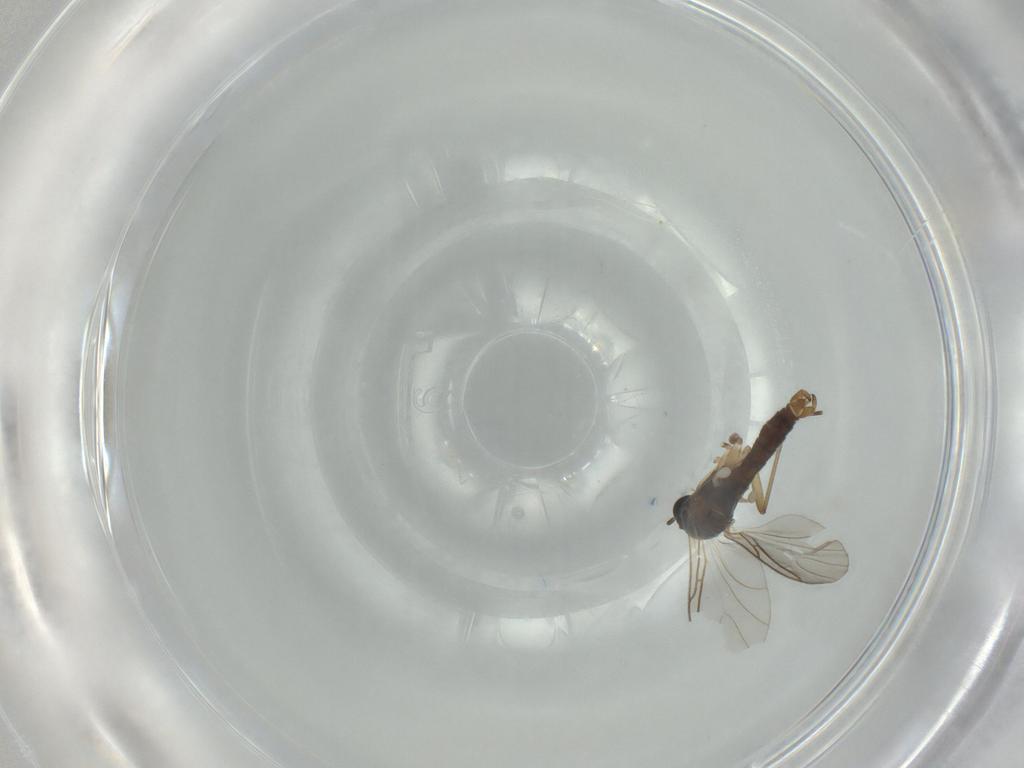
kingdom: Animalia
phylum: Arthropoda
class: Insecta
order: Diptera
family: Sciaridae
